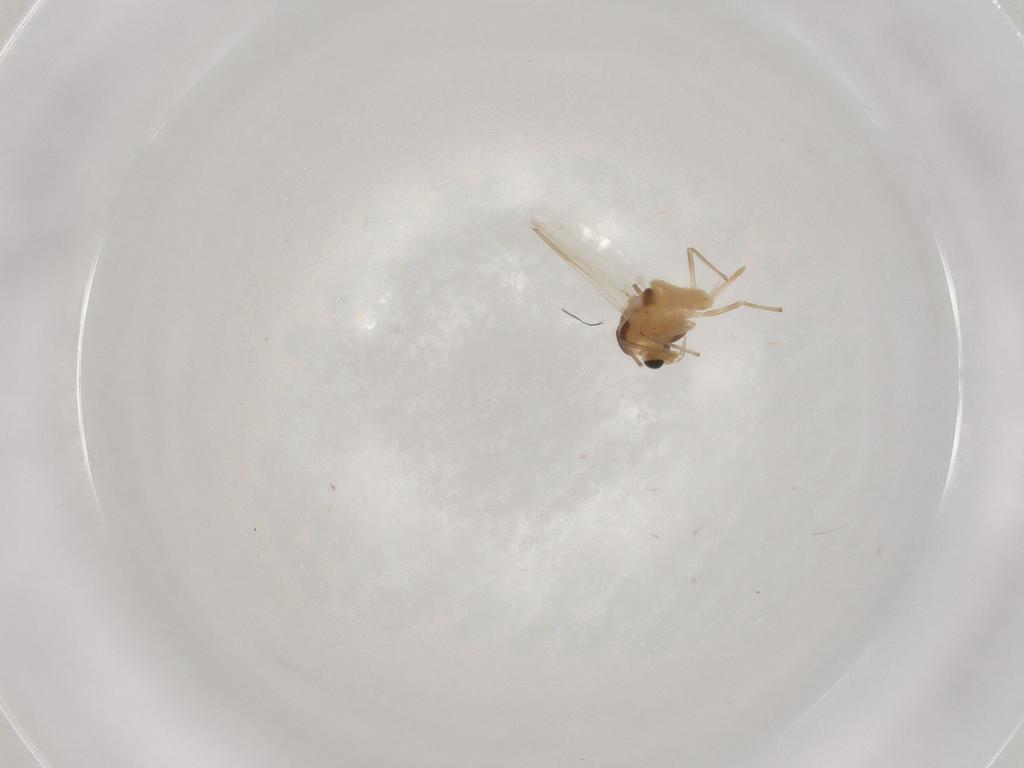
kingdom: Animalia
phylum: Arthropoda
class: Insecta
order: Diptera
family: Chironomidae
